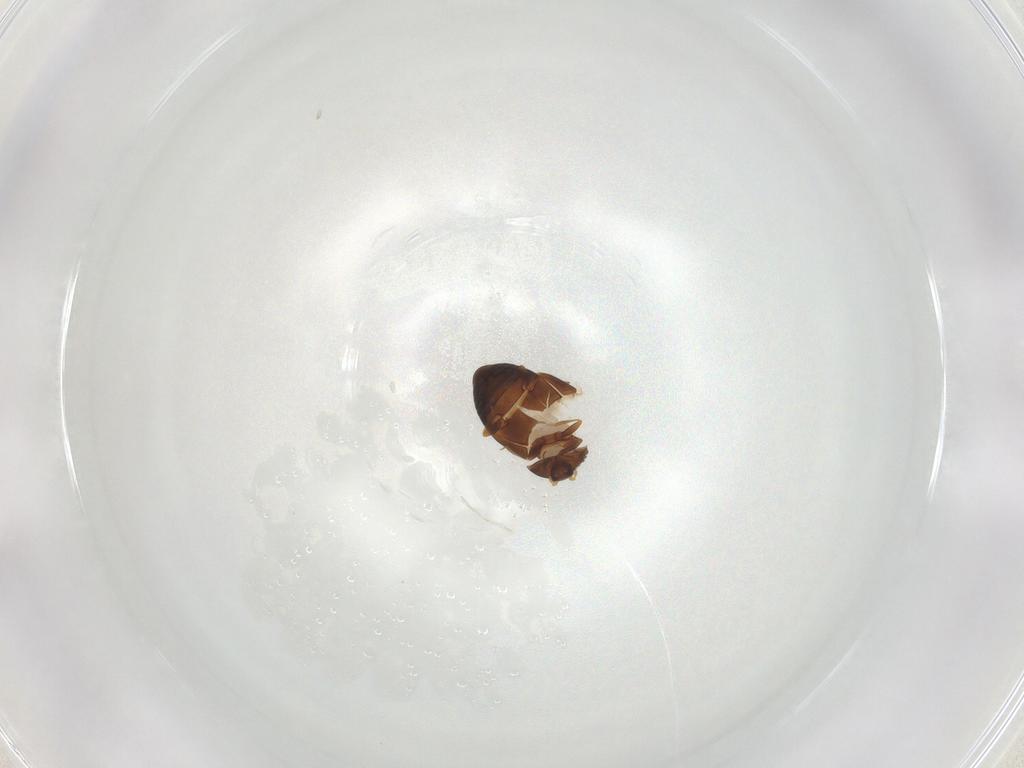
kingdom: Animalia
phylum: Arthropoda
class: Insecta
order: Coleoptera
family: Corylophidae
